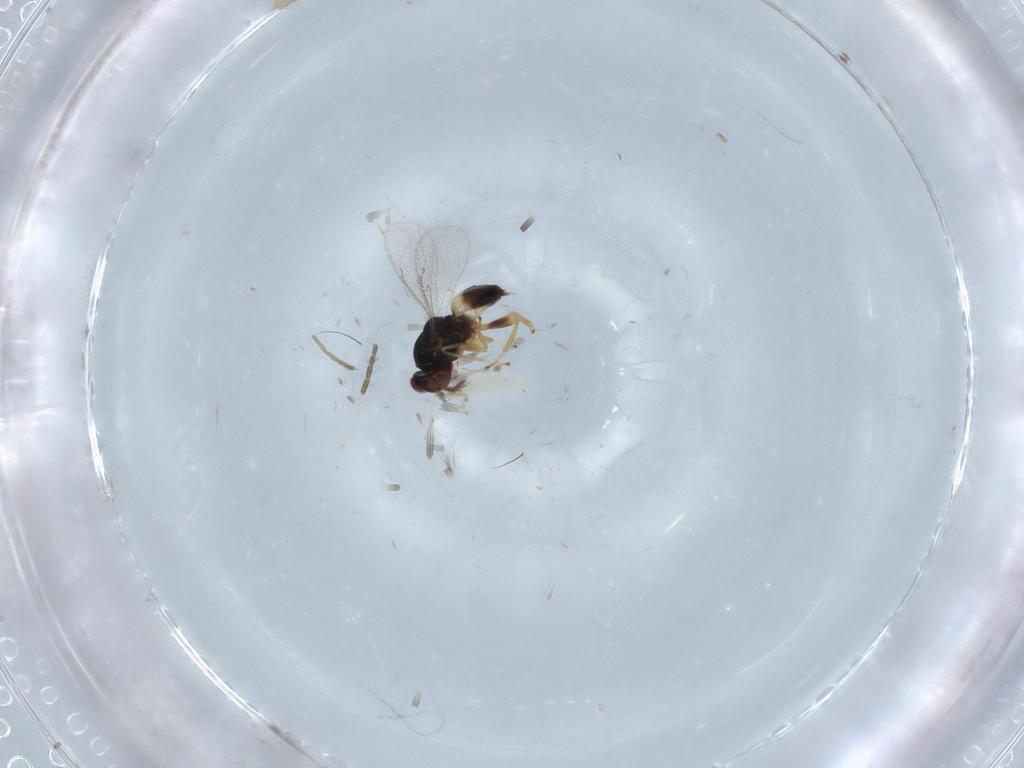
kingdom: Animalia
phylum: Arthropoda
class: Insecta
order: Hymenoptera
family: Eulophidae
